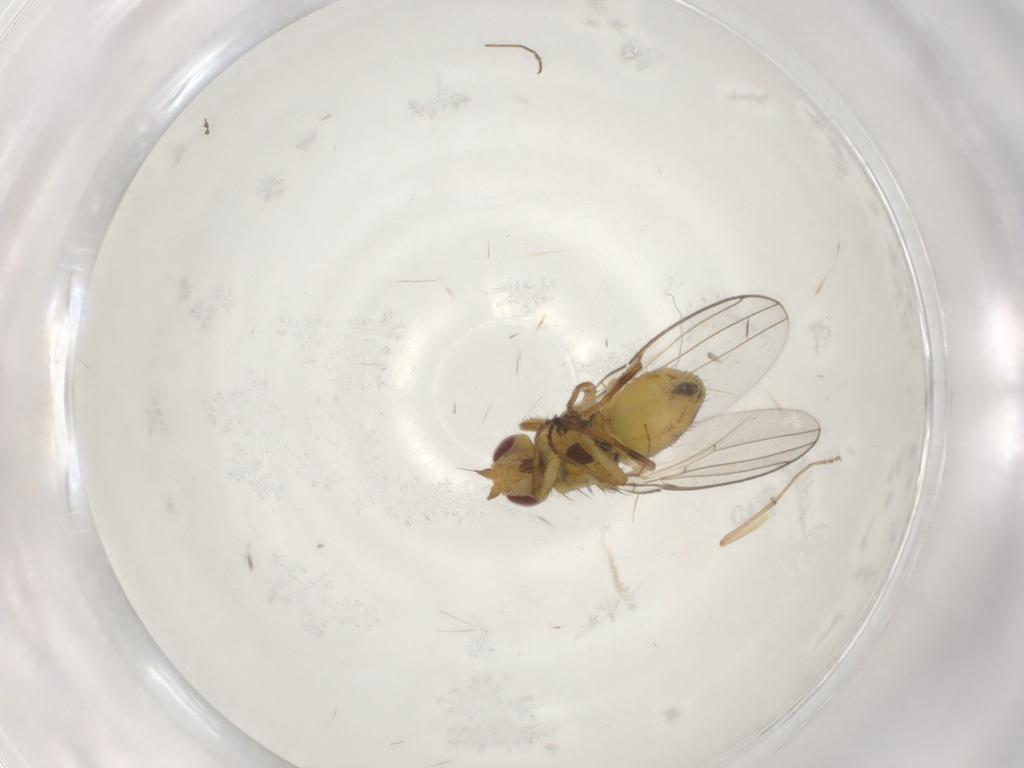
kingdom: Animalia
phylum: Arthropoda
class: Insecta
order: Diptera
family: Chloropidae
